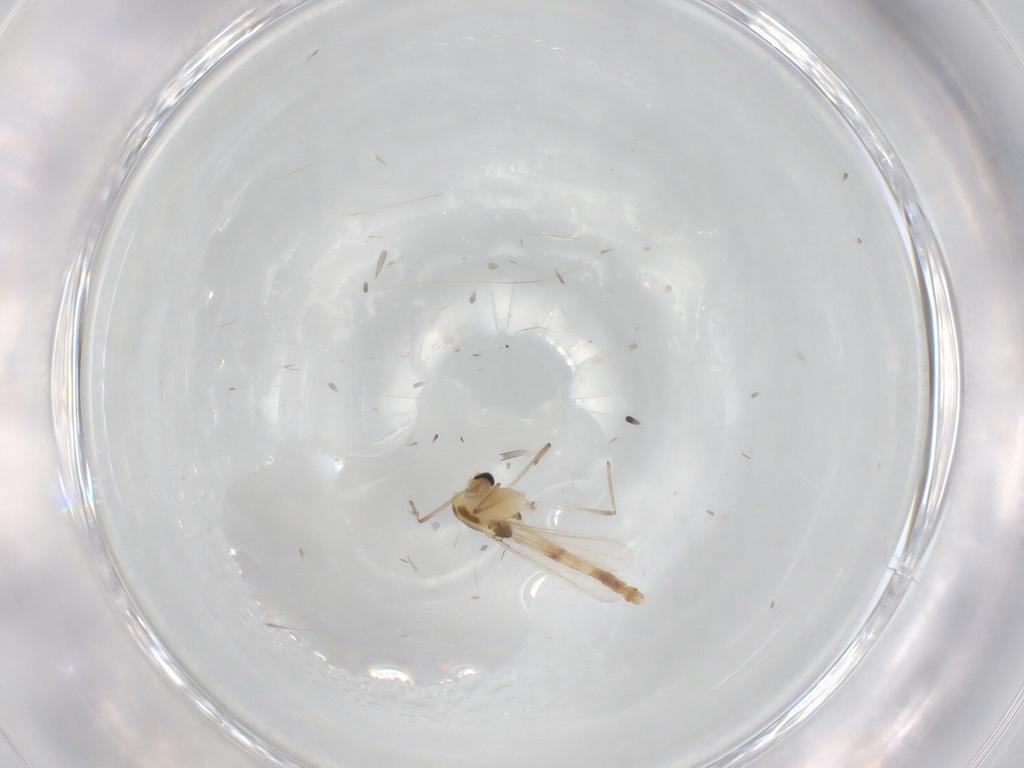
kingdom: Animalia
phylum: Arthropoda
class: Insecta
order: Diptera
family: Chironomidae
